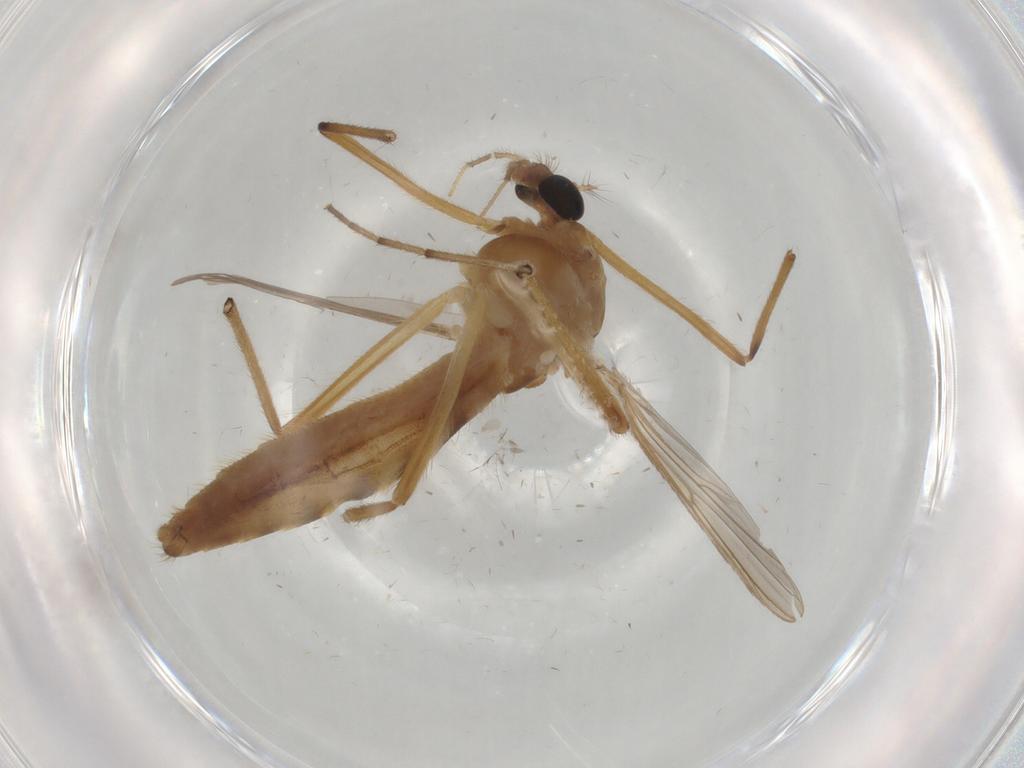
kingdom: Animalia
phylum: Arthropoda
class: Insecta
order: Diptera
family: Chironomidae
